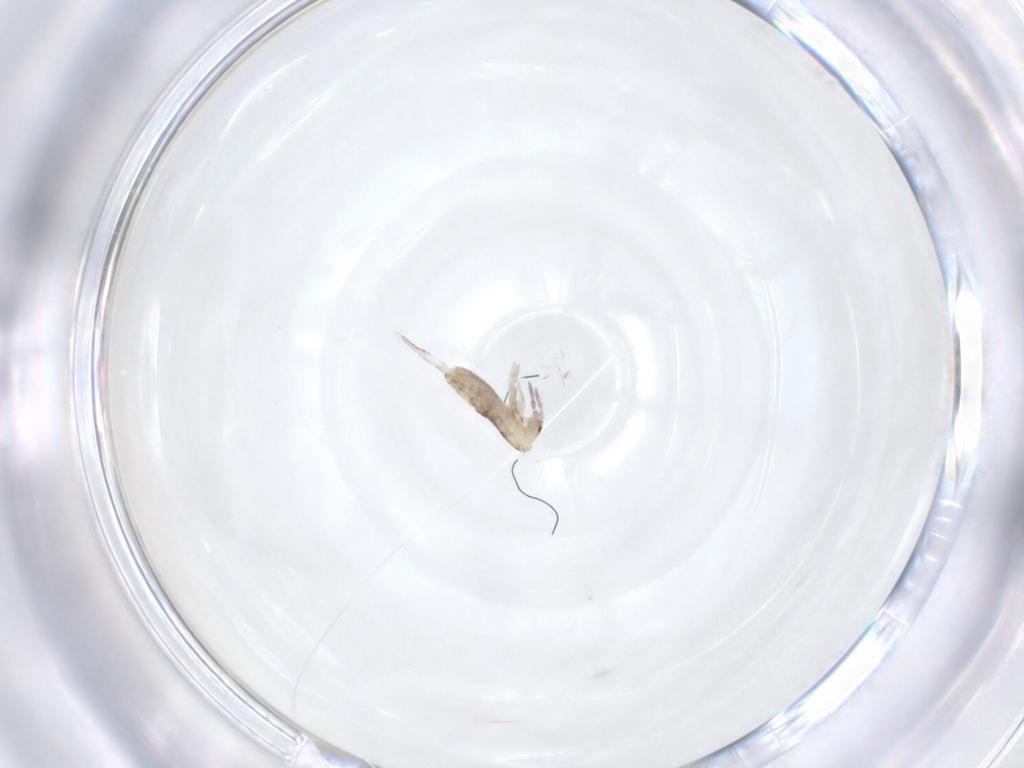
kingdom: Animalia
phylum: Arthropoda
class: Collembola
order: Entomobryomorpha
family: Entomobryidae
